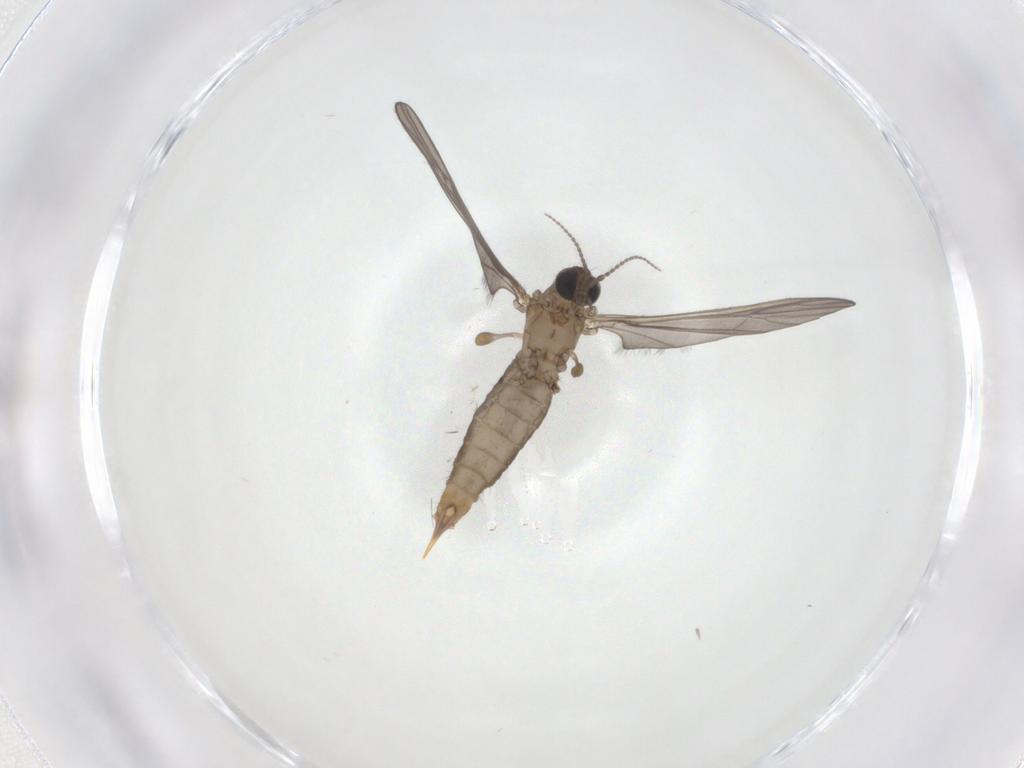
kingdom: Animalia
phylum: Arthropoda
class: Insecta
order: Diptera
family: Limoniidae
